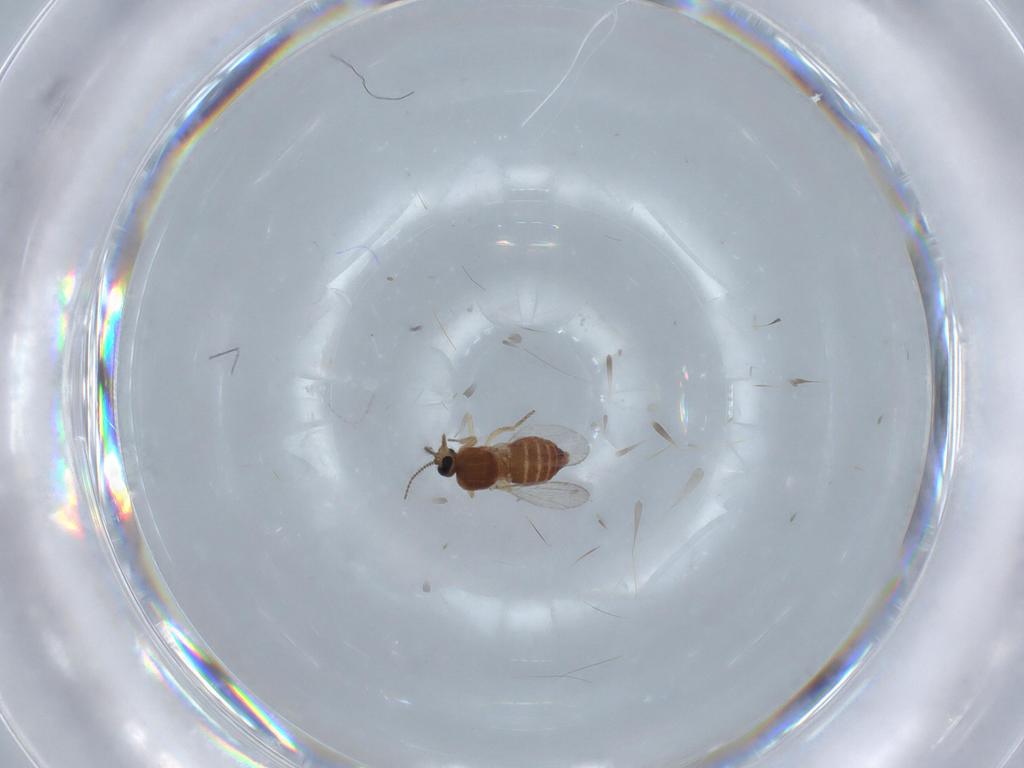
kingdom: Animalia
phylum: Arthropoda
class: Insecta
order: Diptera
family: Ceratopogonidae
